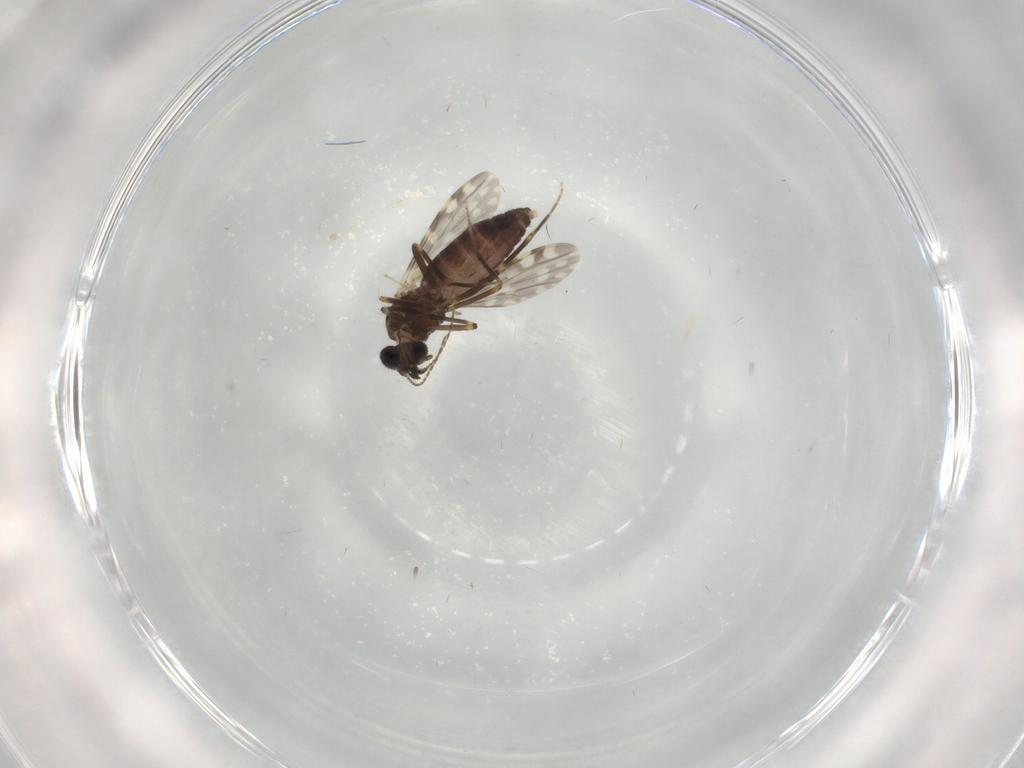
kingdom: Animalia
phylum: Arthropoda
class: Insecta
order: Diptera
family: Ceratopogonidae
